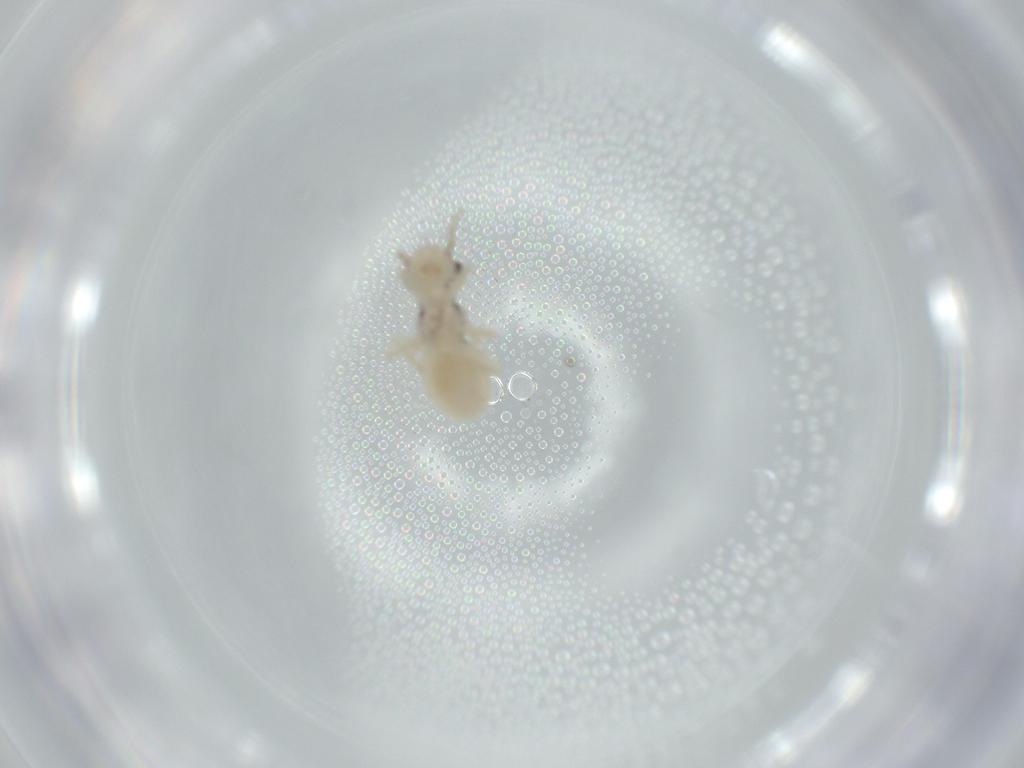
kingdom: Animalia
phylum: Arthropoda
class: Insecta
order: Psocodea
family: Pseudocaeciliidae
